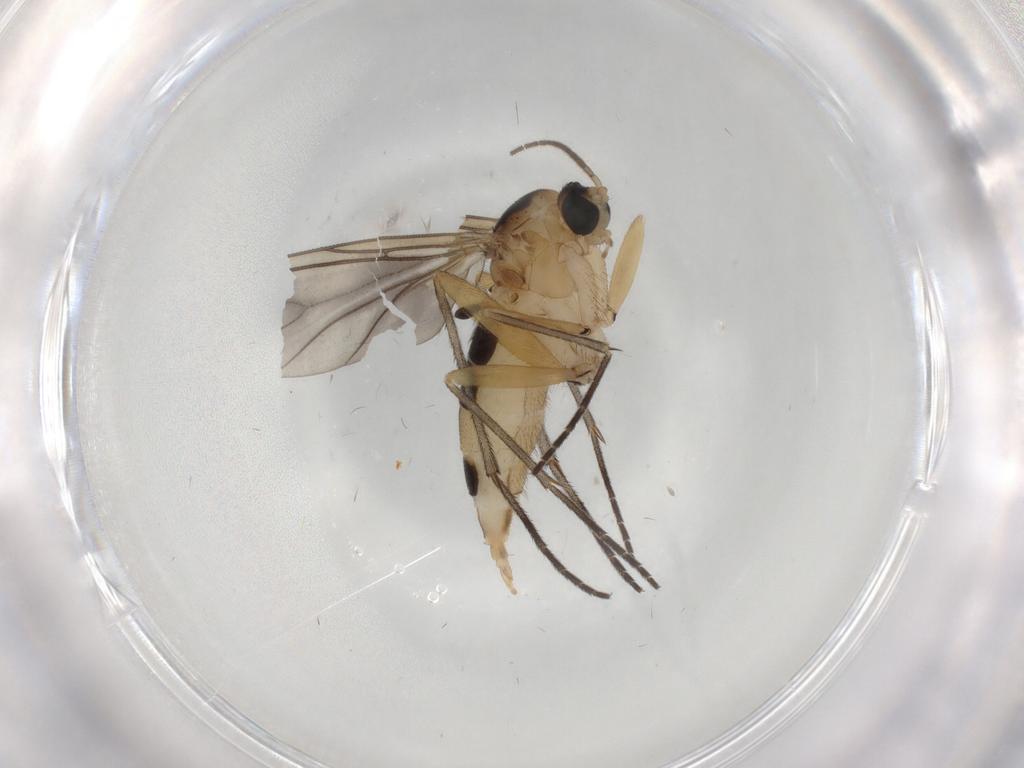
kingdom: Animalia
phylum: Arthropoda
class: Insecta
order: Diptera
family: Sciaridae
